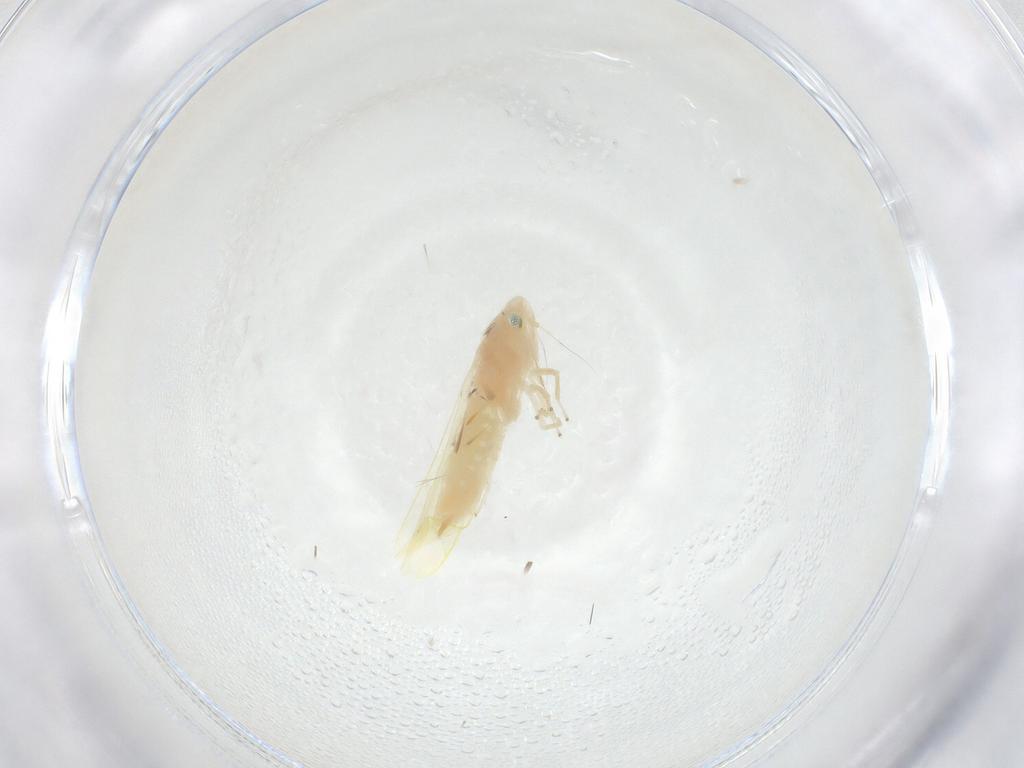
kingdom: Animalia
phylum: Arthropoda
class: Insecta
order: Hemiptera
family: Cicadellidae
